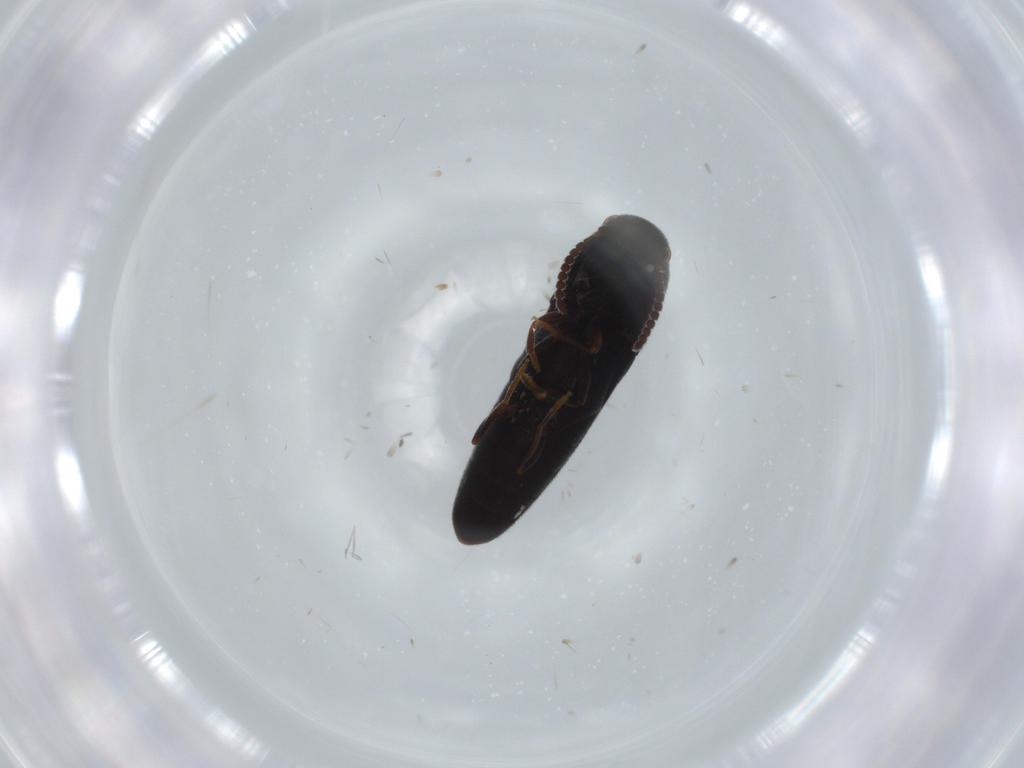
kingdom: Animalia
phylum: Arthropoda
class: Insecta
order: Coleoptera
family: Eucnemidae
